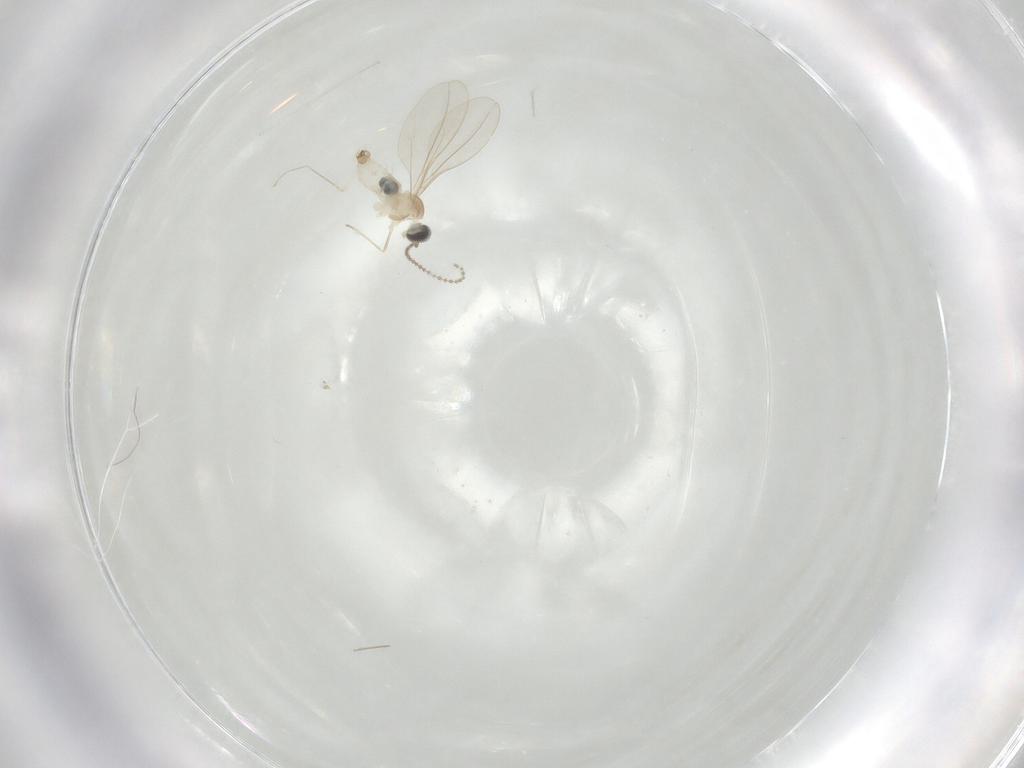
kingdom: Animalia
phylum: Arthropoda
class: Insecta
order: Diptera
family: Cecidomyiidae
